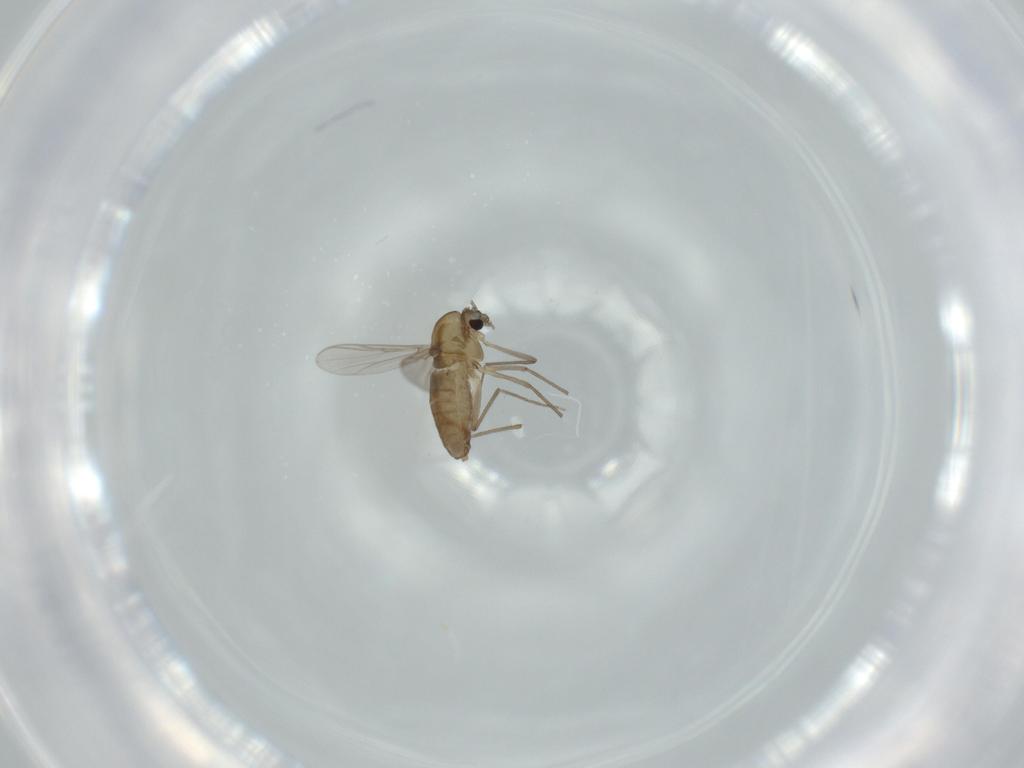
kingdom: Animalia
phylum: Arthropoda
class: Insecta
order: Diptera
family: Chironomidae
